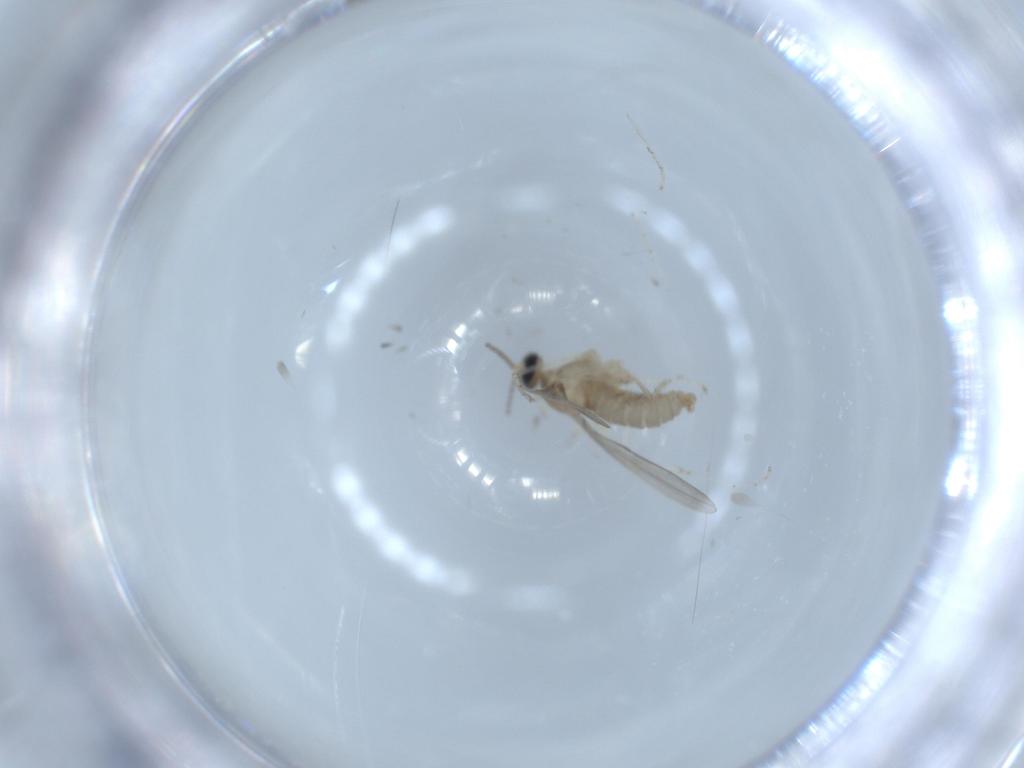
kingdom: Animalia
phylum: Arthropoda
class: Insecta
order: Diptera
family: Cecidomyiidae
